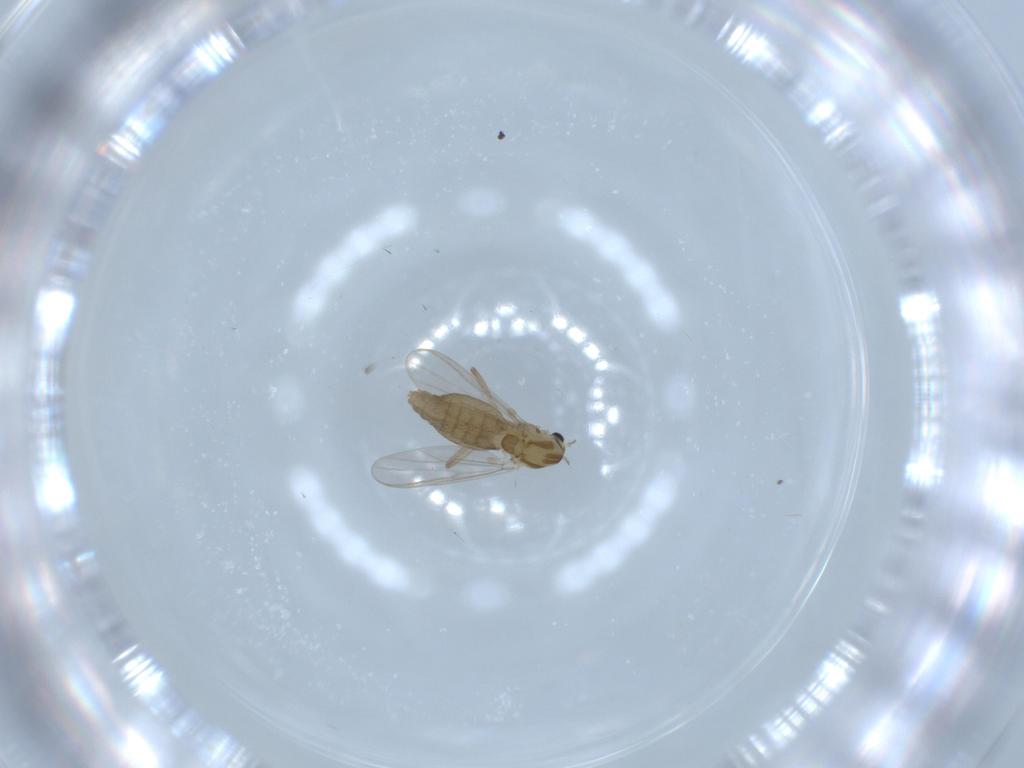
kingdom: Animalia
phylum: Arthropoda
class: Insecta
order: Diptera
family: Chironomidae
